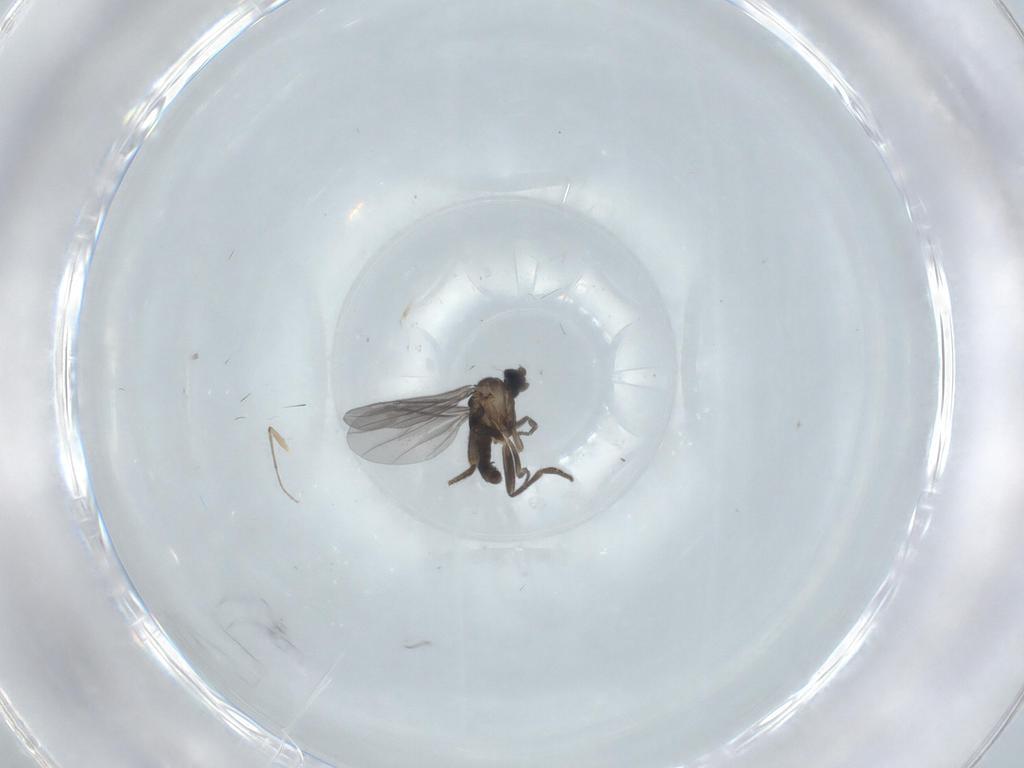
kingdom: Animalia
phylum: Arthropoda
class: Insecta
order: Diptera
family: Chironomidae
